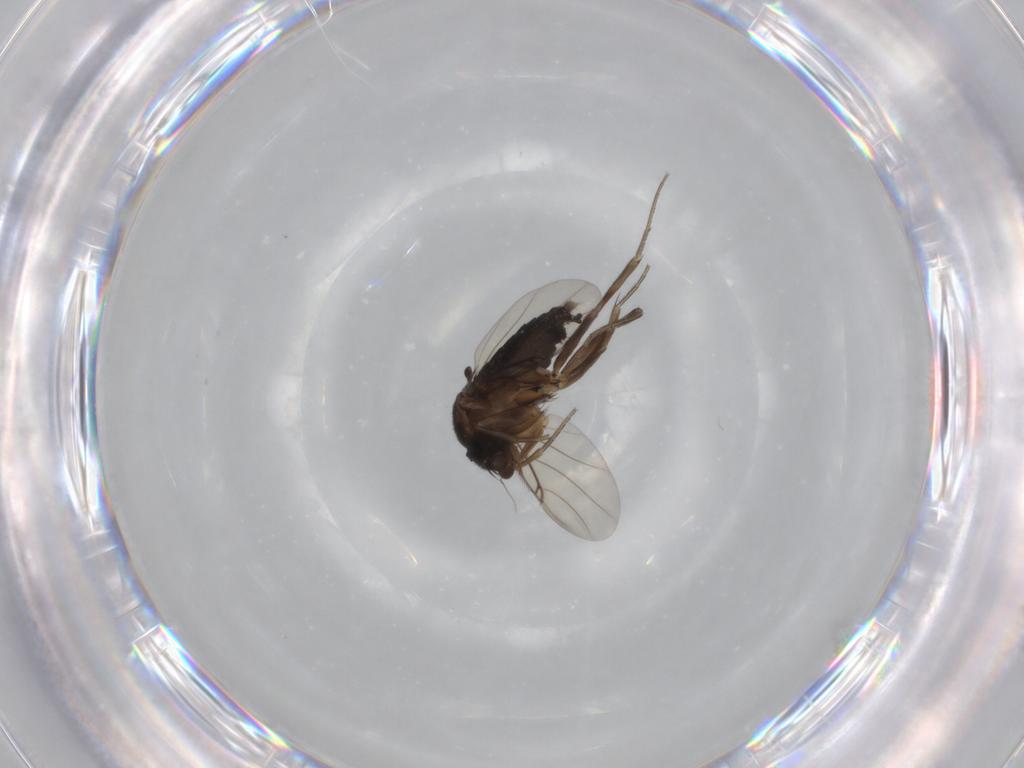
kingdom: Animalia
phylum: Arthropoda
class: Insecta
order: Diptera
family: Phoridae
